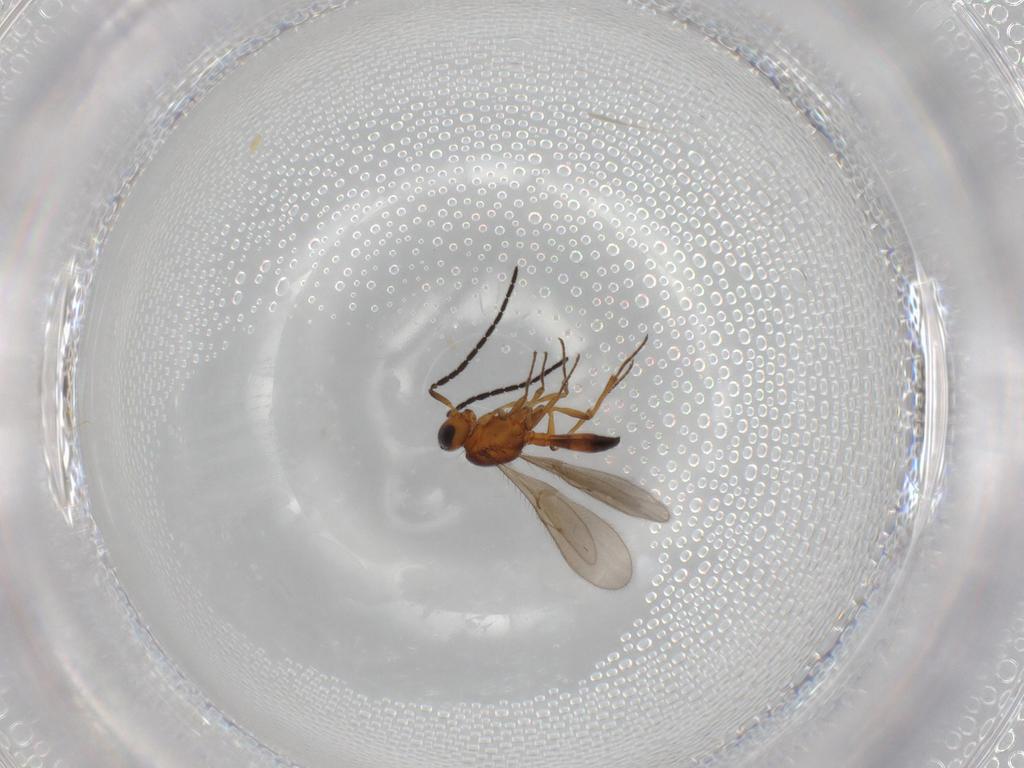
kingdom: Animalia
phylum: Arthropoda
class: Insecta
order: Hymenoptera
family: Scelionidae
